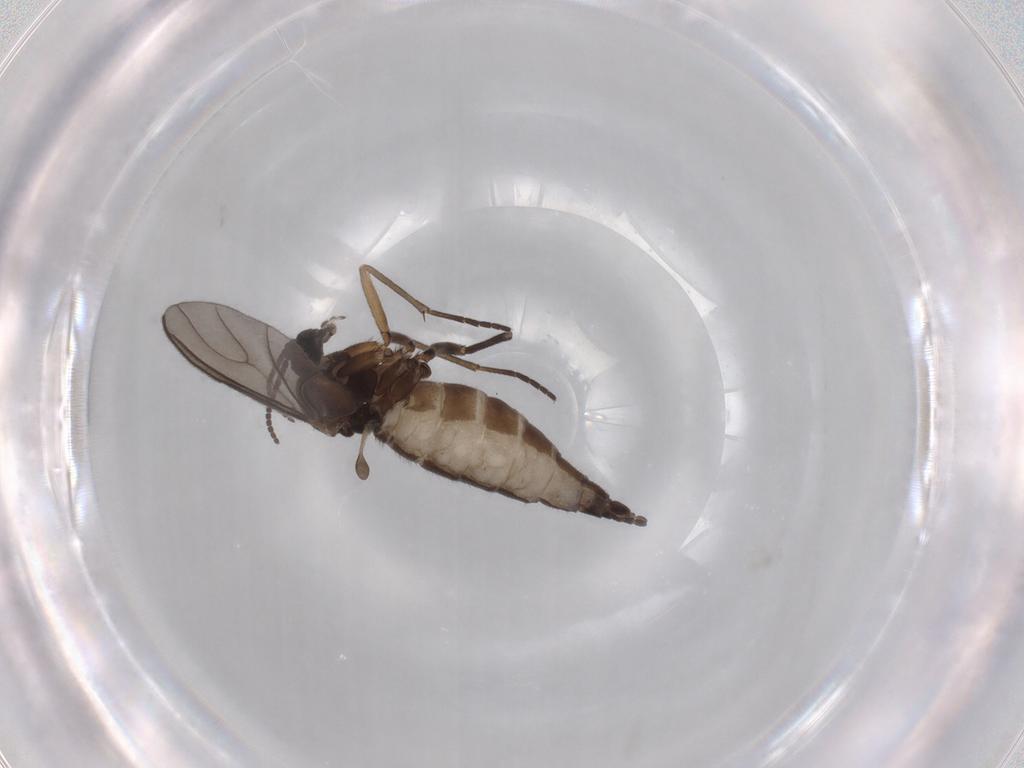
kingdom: Animalia
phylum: Arthropoda
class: Insecta
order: Diptera
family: Sciaridae
